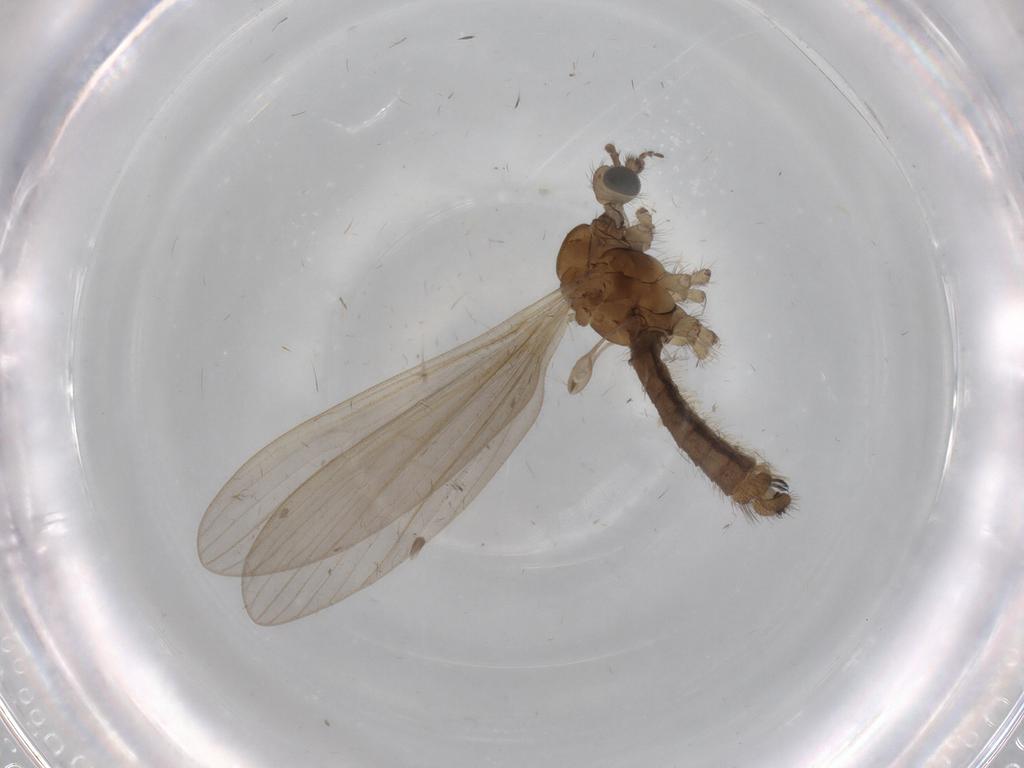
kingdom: Animalia
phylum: Arthropoda
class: Insecta
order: Diptera
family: Limoniidae
